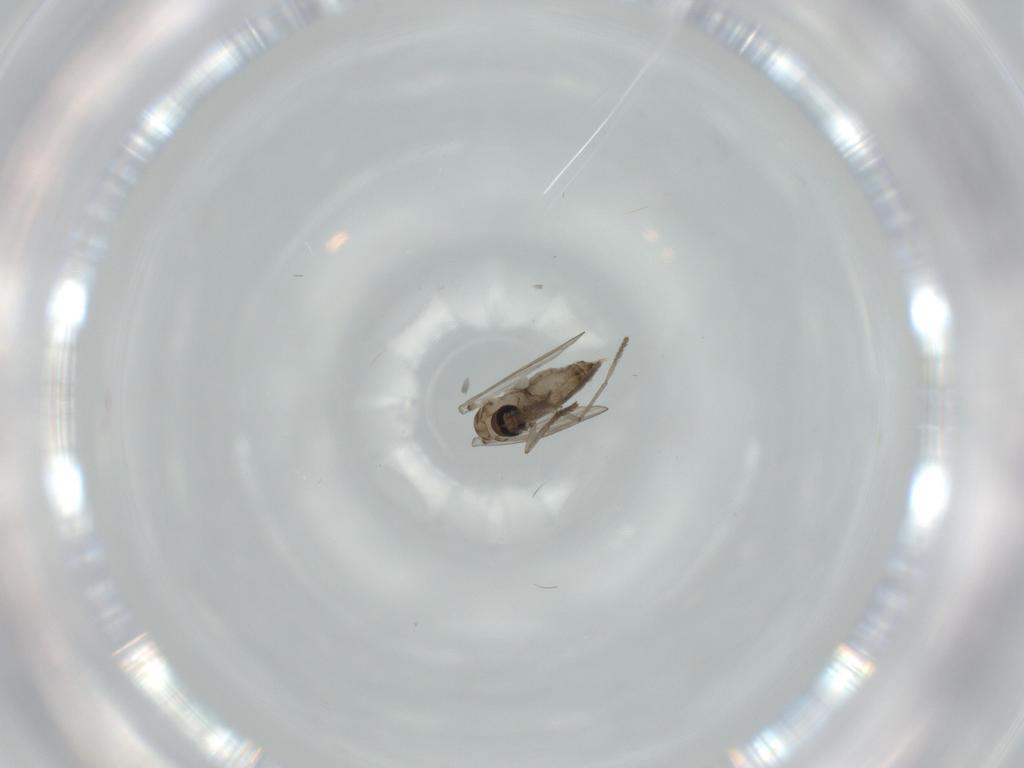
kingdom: Animalia
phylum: Arthropoda
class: Insecta
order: Diptera
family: Psychodidae
